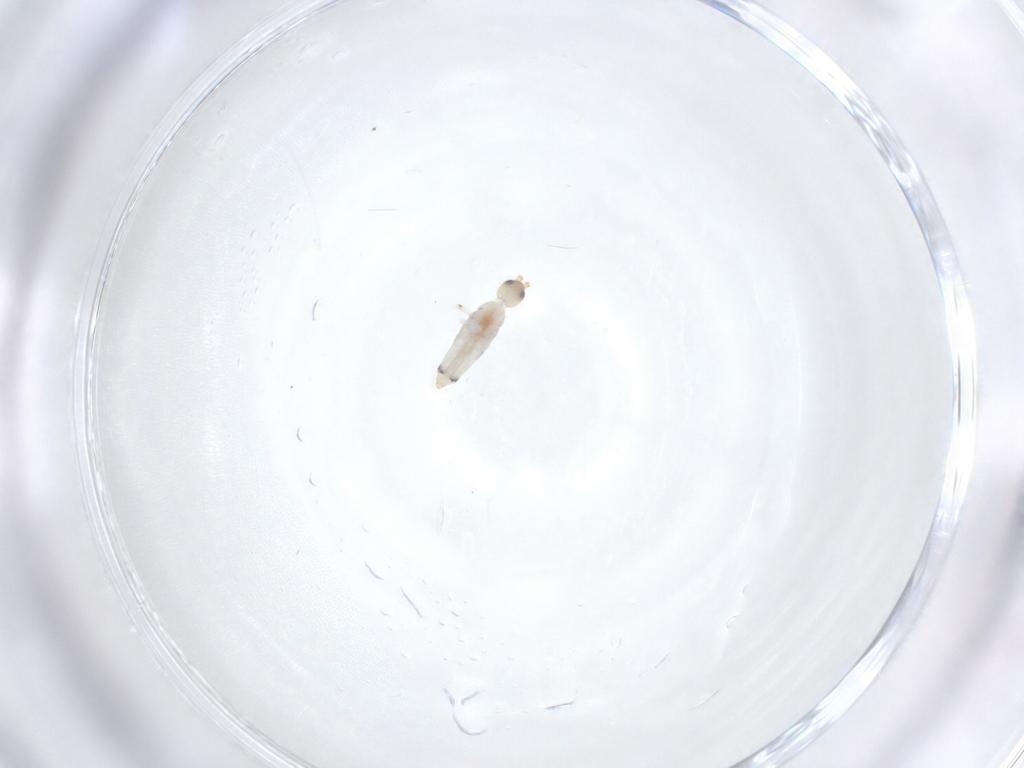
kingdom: Animalia
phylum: Arthropoda
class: Collembola
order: Entomobryomorpha
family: Entomobryidae
